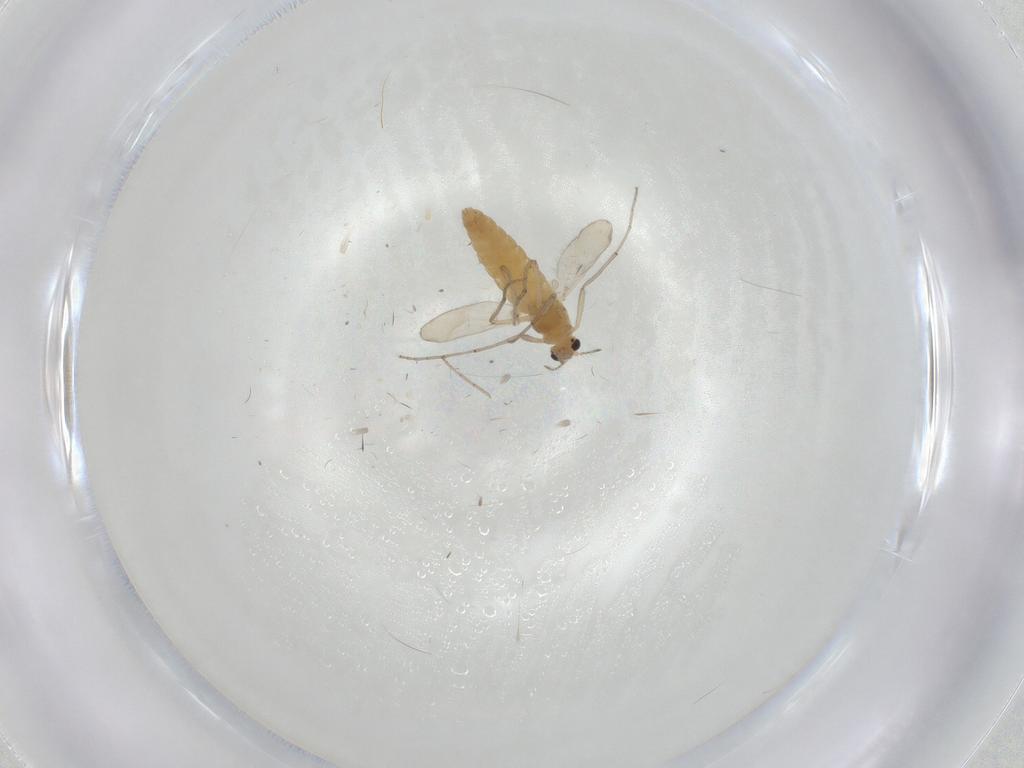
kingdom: Animalia
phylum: Arthropoda
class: Insecta
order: Diptera
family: Chironomidae
